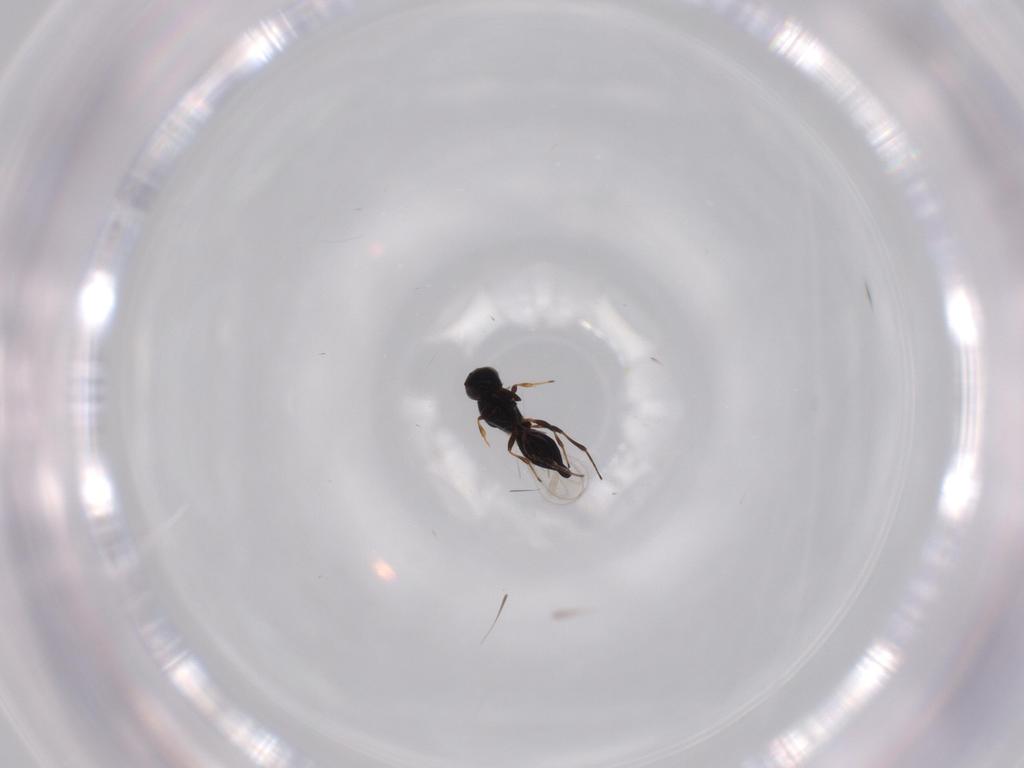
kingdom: Animalia
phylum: Arthropoda
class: Insecta
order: Hymenoptera
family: Platygastridae
